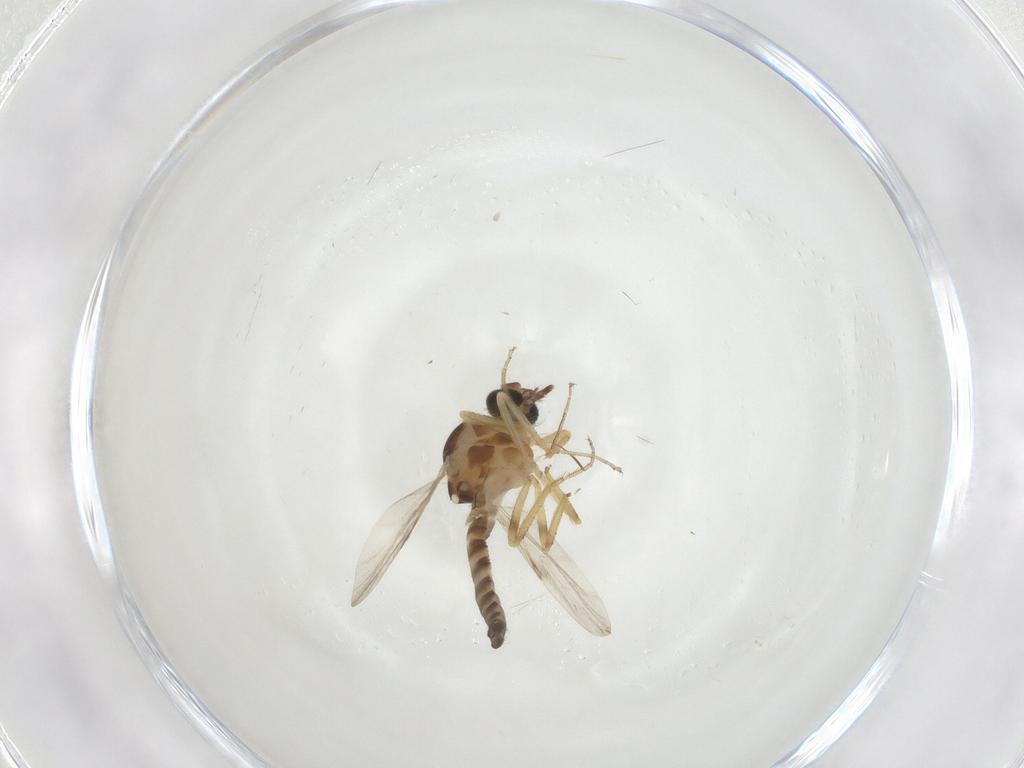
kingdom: Animalia
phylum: Arthropoda
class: Insecta
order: Diptera
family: Ceratopogonidae
